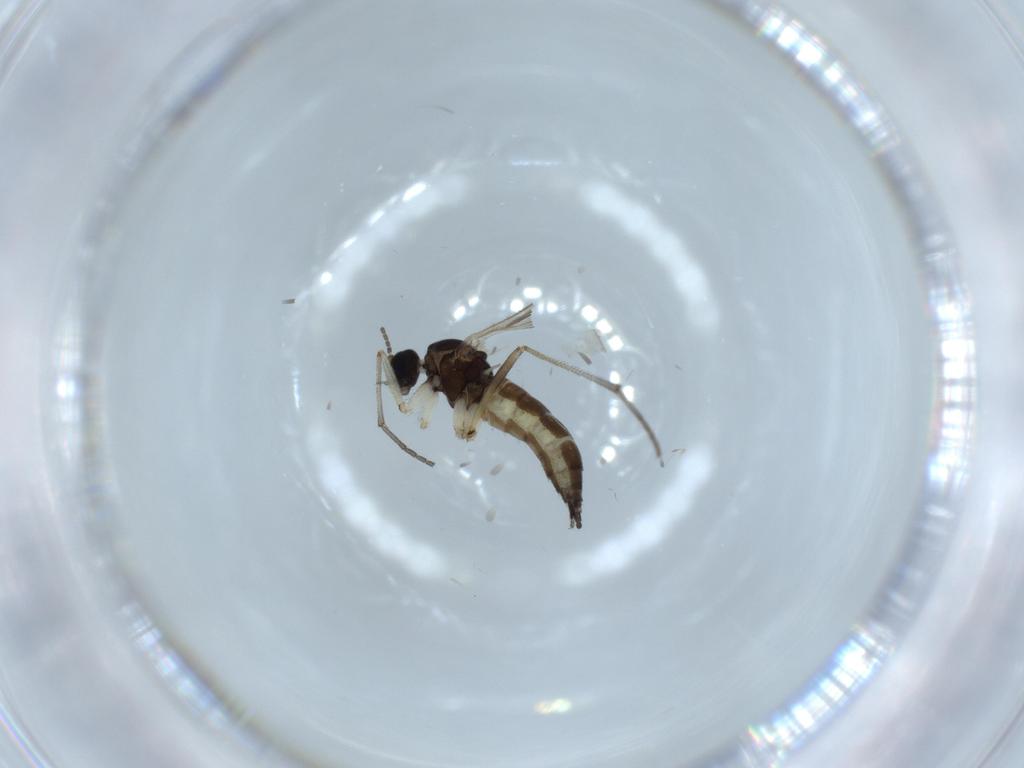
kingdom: Animalia
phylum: Arthropoda
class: Insecta
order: Diptera
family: Sciaridae
